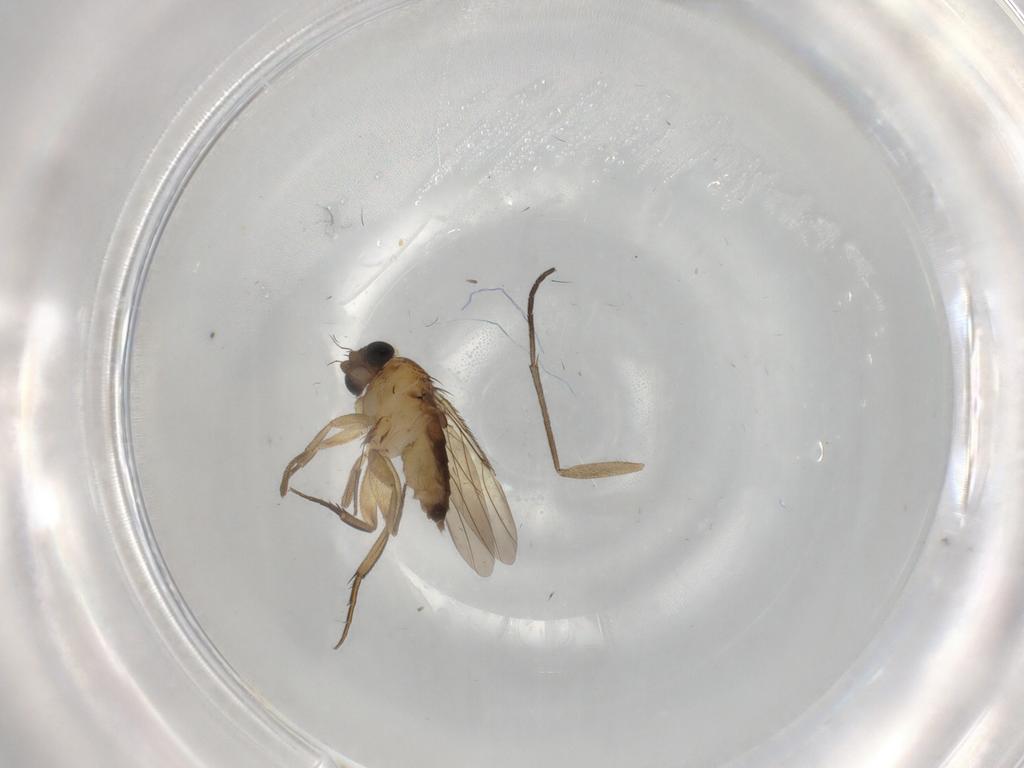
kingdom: Animalia
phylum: Arthropoda
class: Insecta
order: Diptera
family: Phoridae
